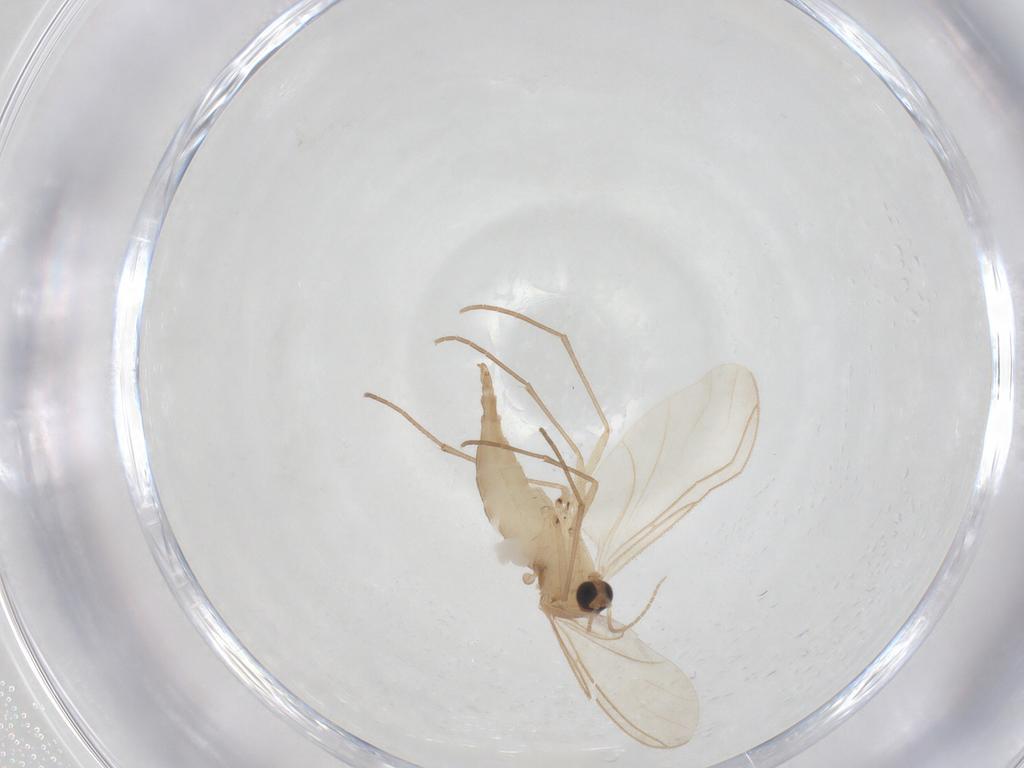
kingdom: Animalia
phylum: Arthropoda
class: Insecta
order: Diptera
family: Sciaridae
